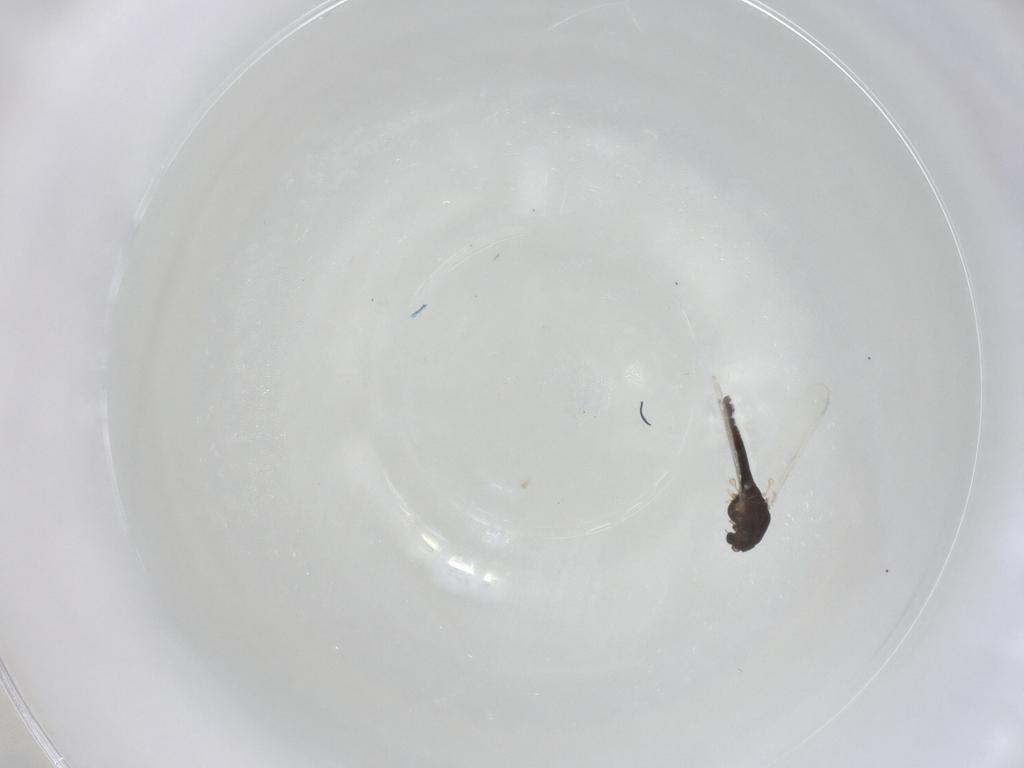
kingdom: Animalia
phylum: Arthropoda
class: Insecta
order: Diptera
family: Chironomidae
